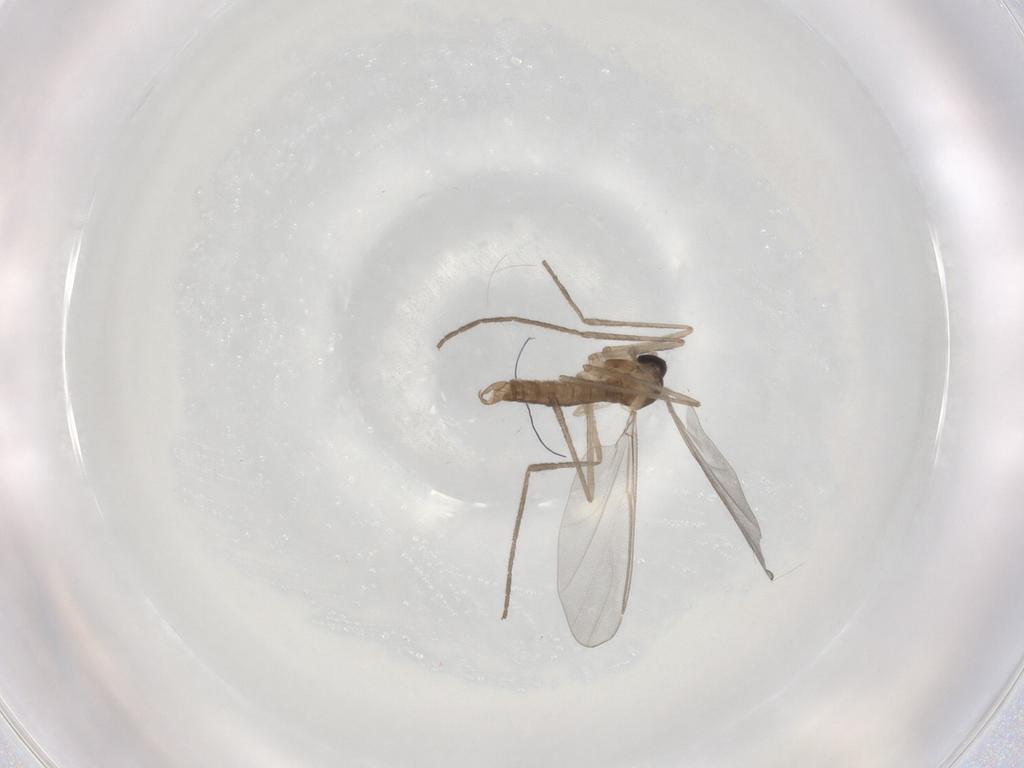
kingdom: Animalia
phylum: Arthropoda
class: Insecta
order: Diptera
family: Cecidomyiidae
